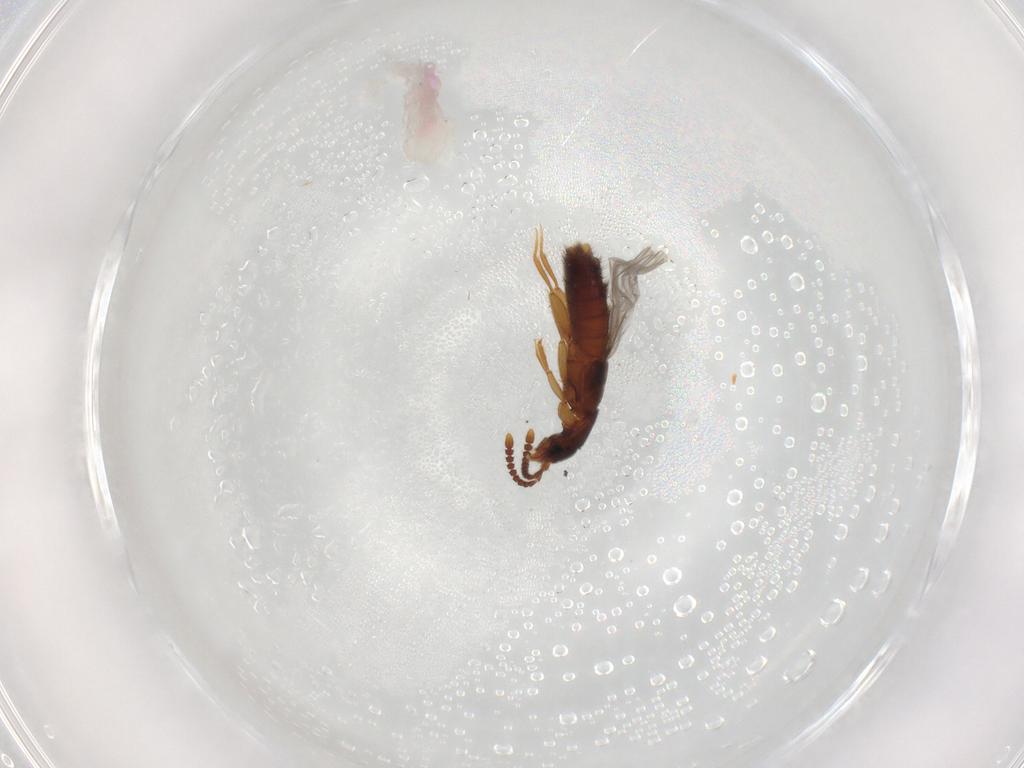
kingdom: Animalia
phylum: Arthropoda
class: Insecta
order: Coleoptera
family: Staphylinidae
